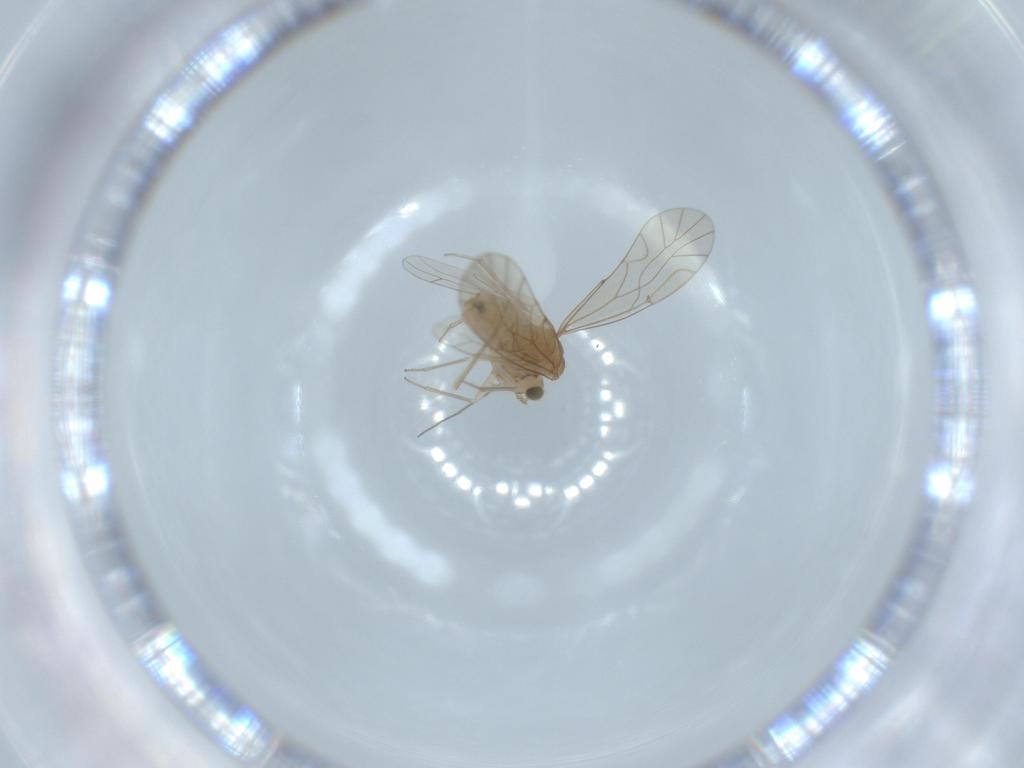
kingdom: Animalia
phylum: Arthropoda
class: Insecta
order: Psocodea
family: Lachesillidae
